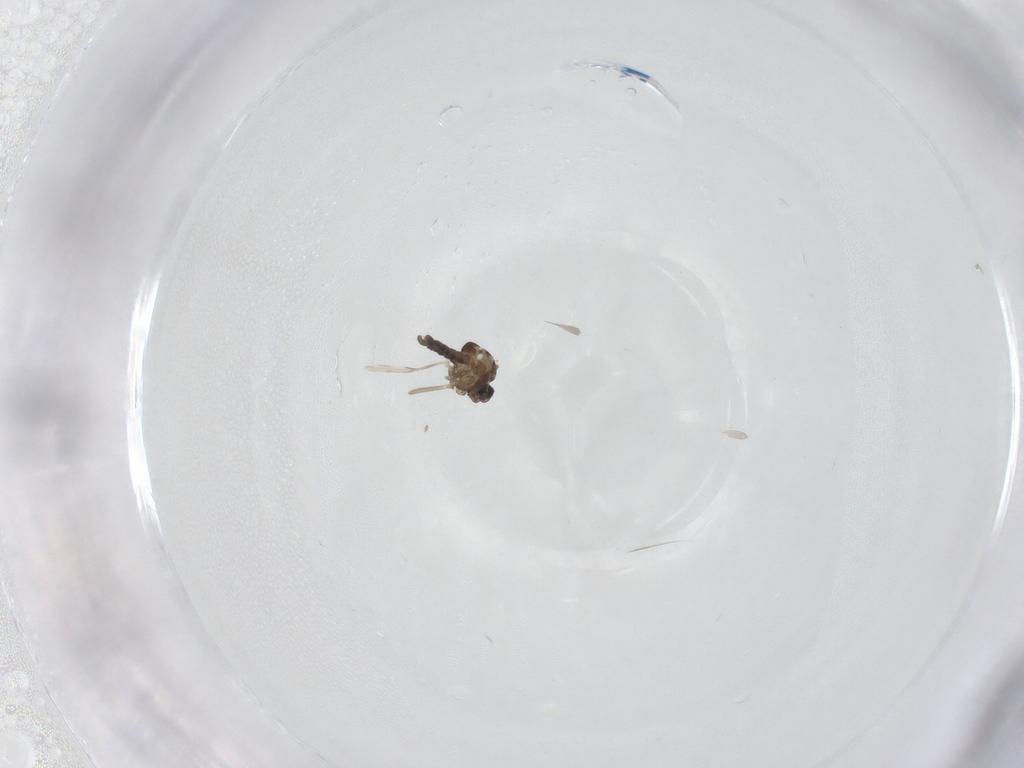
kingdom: Animalia
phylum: Arthropoda
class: Insecta
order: Diptera
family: Ceratopogonidae
